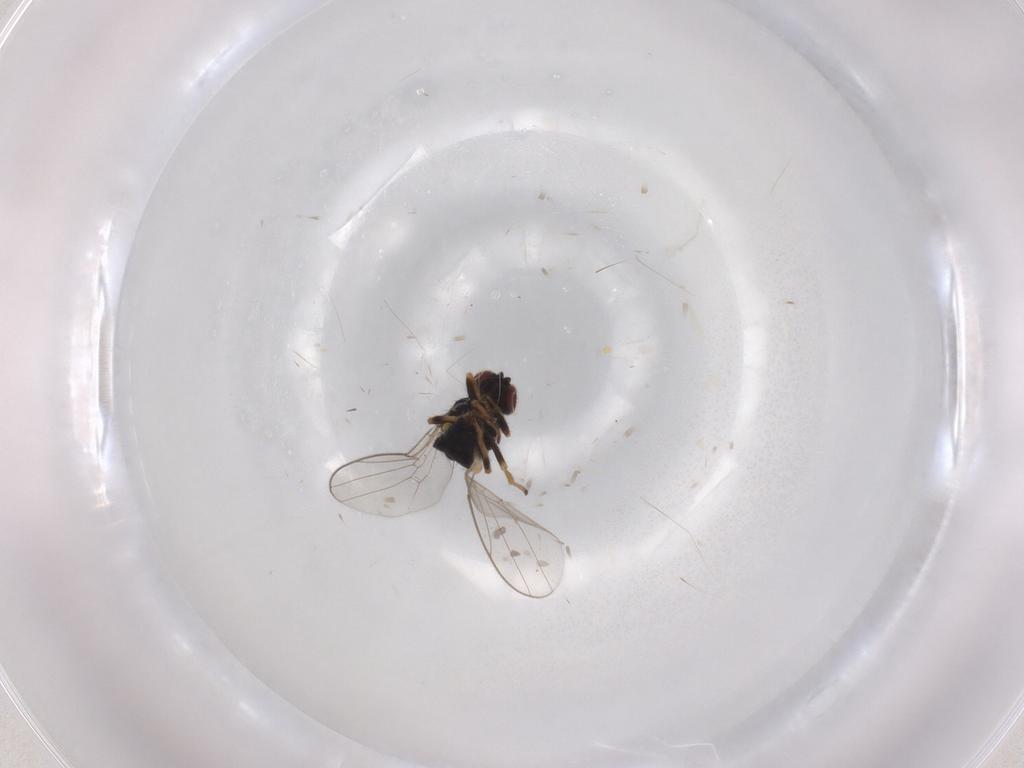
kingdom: Animalia
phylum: Arthropoda
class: Insecta
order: Diptera
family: Chloropidae
